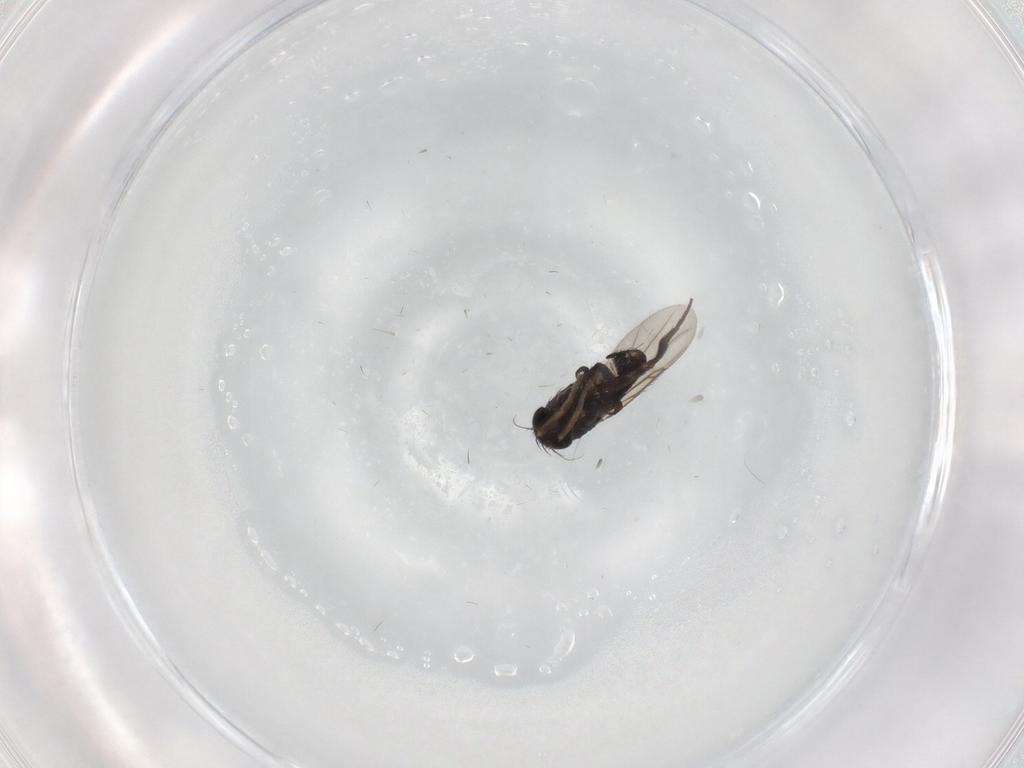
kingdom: Animalia
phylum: Arthropoda
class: Insecta
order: Diptera
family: Phoridae
